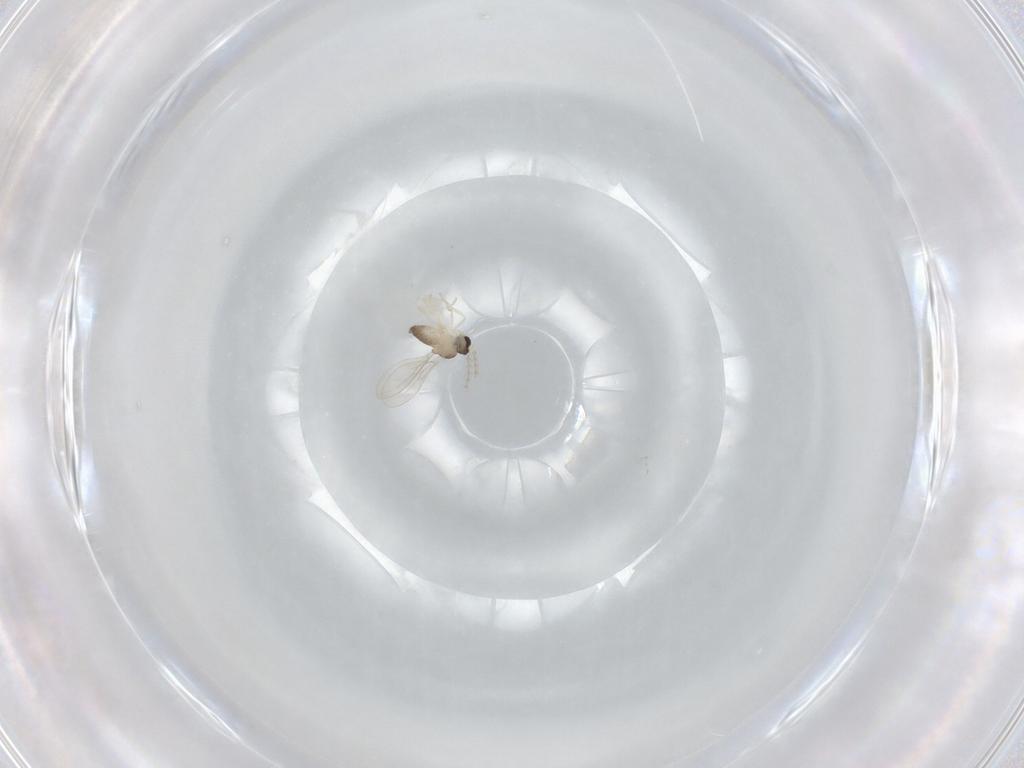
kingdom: Animalia
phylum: Arthropoda
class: Insecta
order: Diptera
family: Cecidomyiidae
